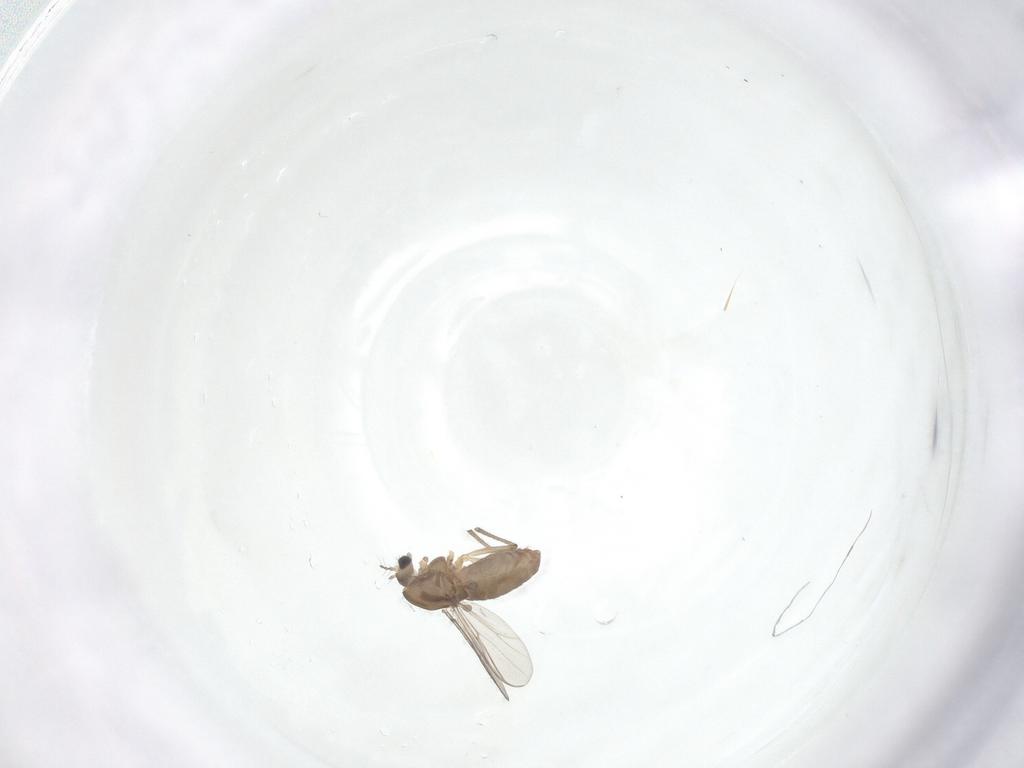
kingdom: Animalia
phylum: Arthropoda
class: Insecta
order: Diptera
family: Chironomidae
